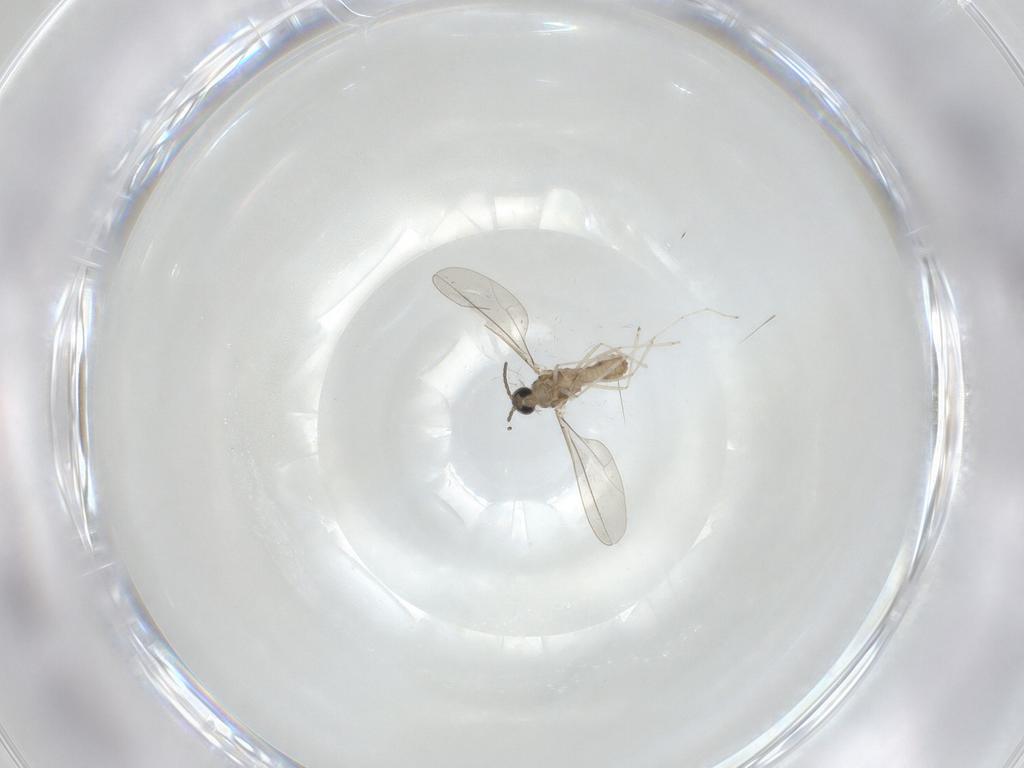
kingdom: Animalia
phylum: Arthropoda
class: Insecta
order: Diptera
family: Cecidomyiidae
